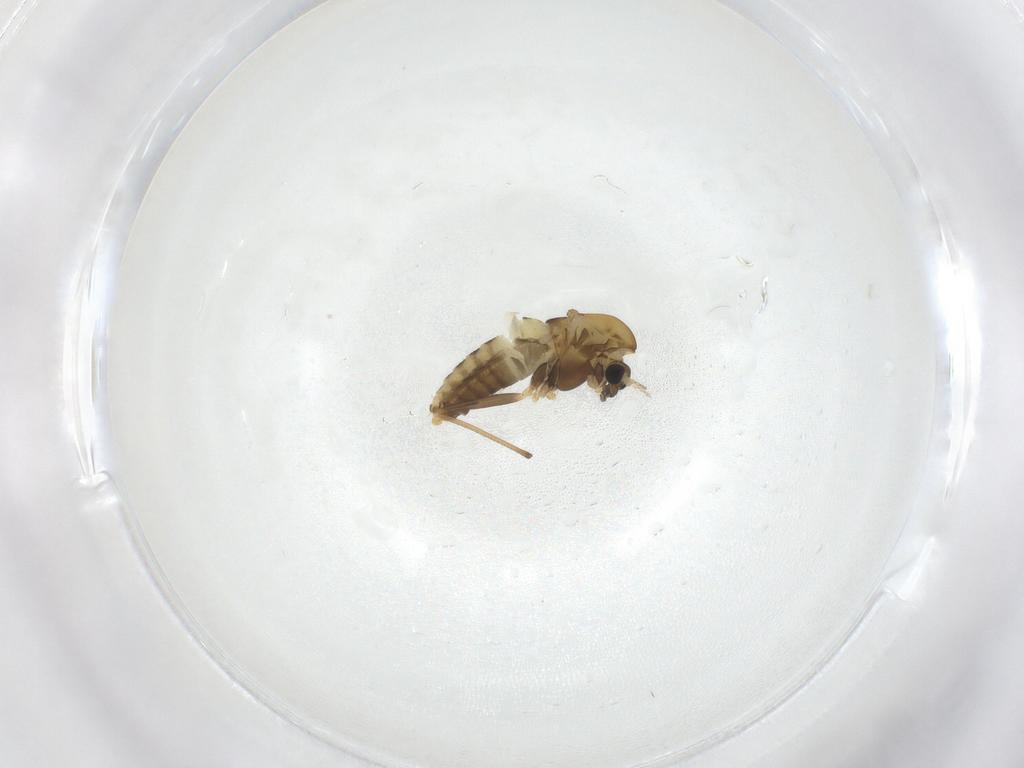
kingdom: Animalia
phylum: Arthropoda
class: Insecta
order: Diptera
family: Chironomidae
